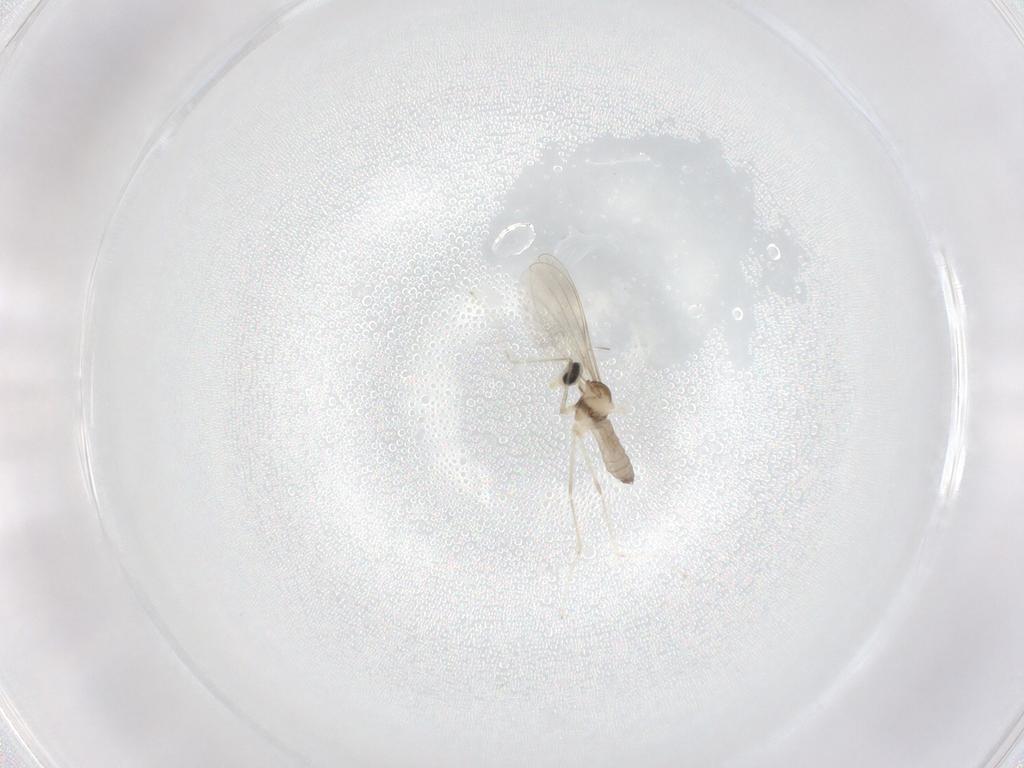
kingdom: Animalia
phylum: Arthropoda
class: Insecta
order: Diptera
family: Cecidomyiidae
